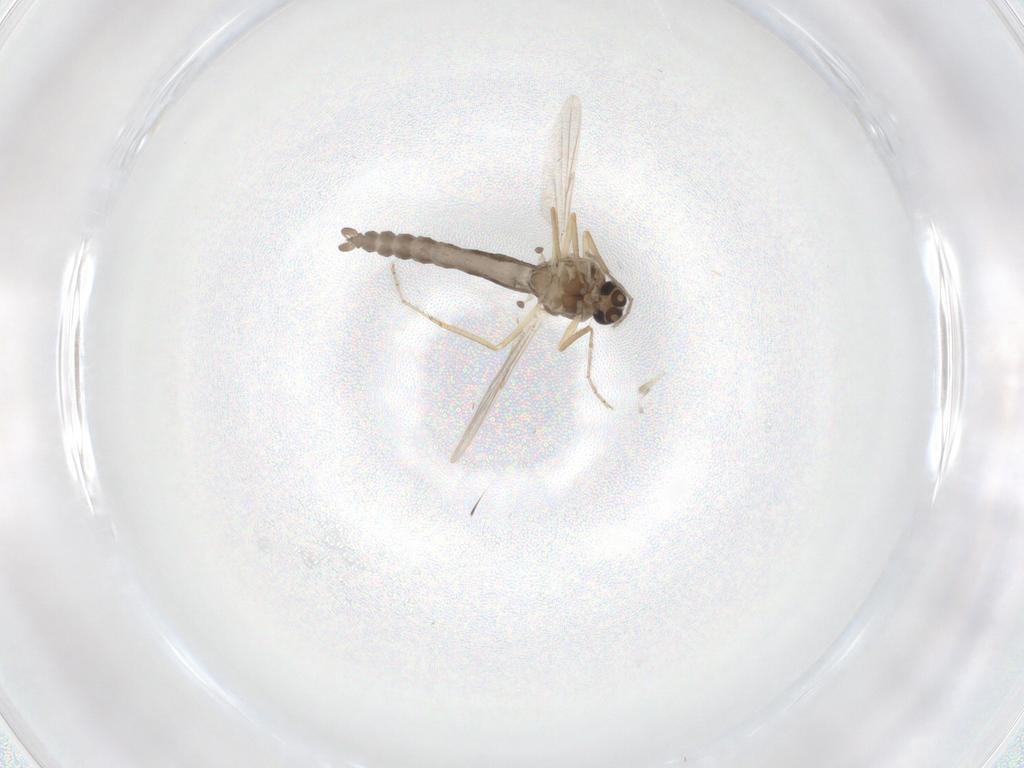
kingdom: Animalia
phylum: Arthropoda
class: Insecta
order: Diptera
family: Ceratopogonidae
